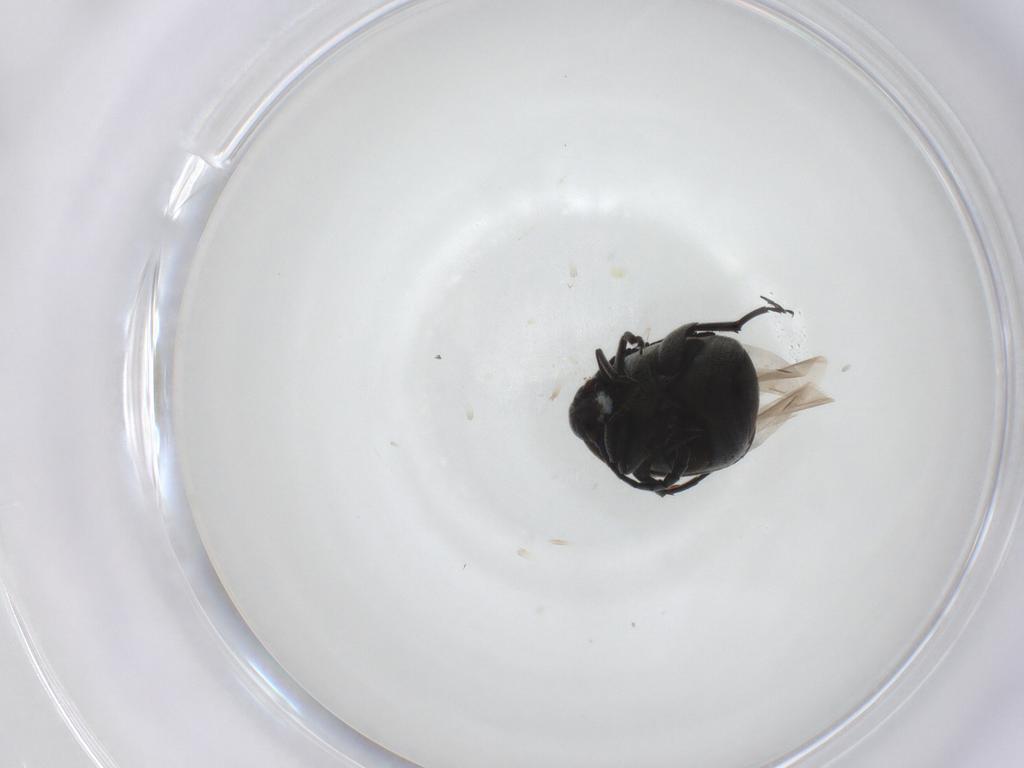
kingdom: Animalia
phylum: Arthropoda
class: Insecta
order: Coleoptera
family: Chrysomelidae
